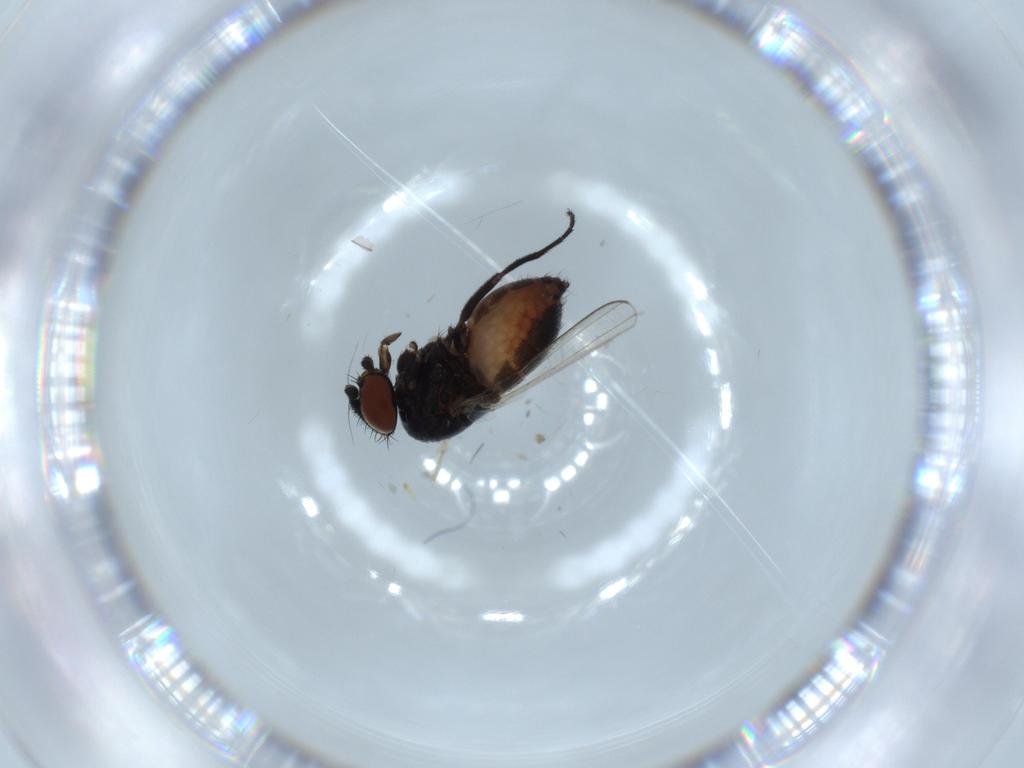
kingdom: Animalia
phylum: Arthropoda
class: Insecta
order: Diptera
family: Milichiidae
